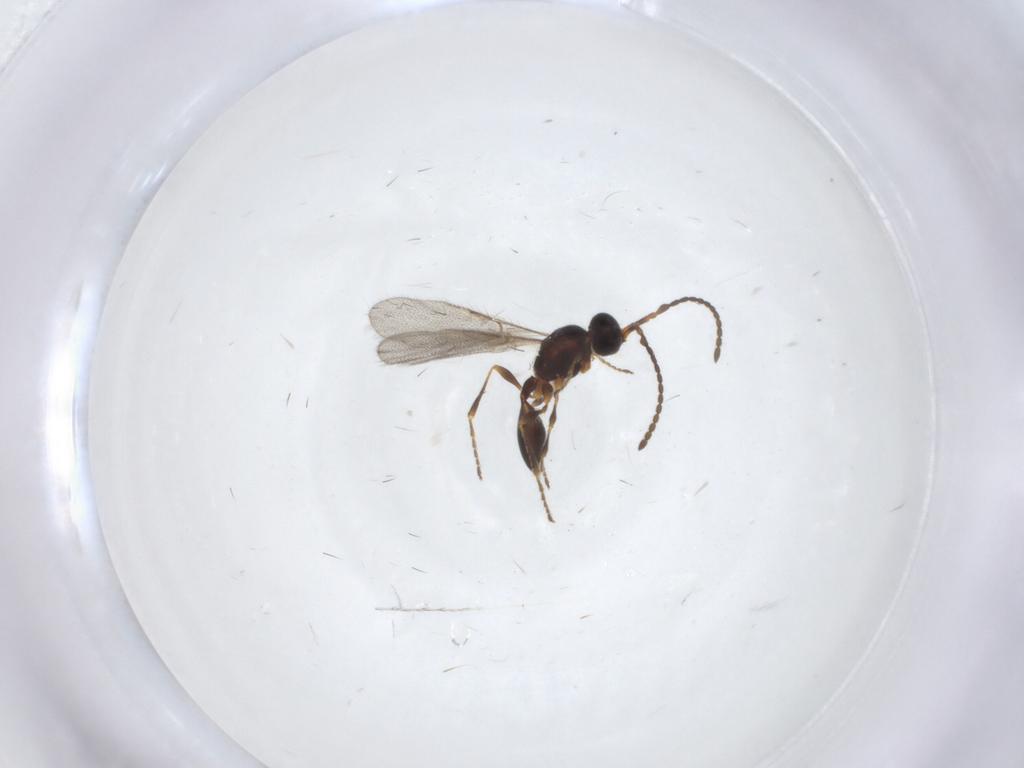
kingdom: Animalia
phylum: Arthropoda
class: Insecta
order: Hymenoptera
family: Diapriidae
